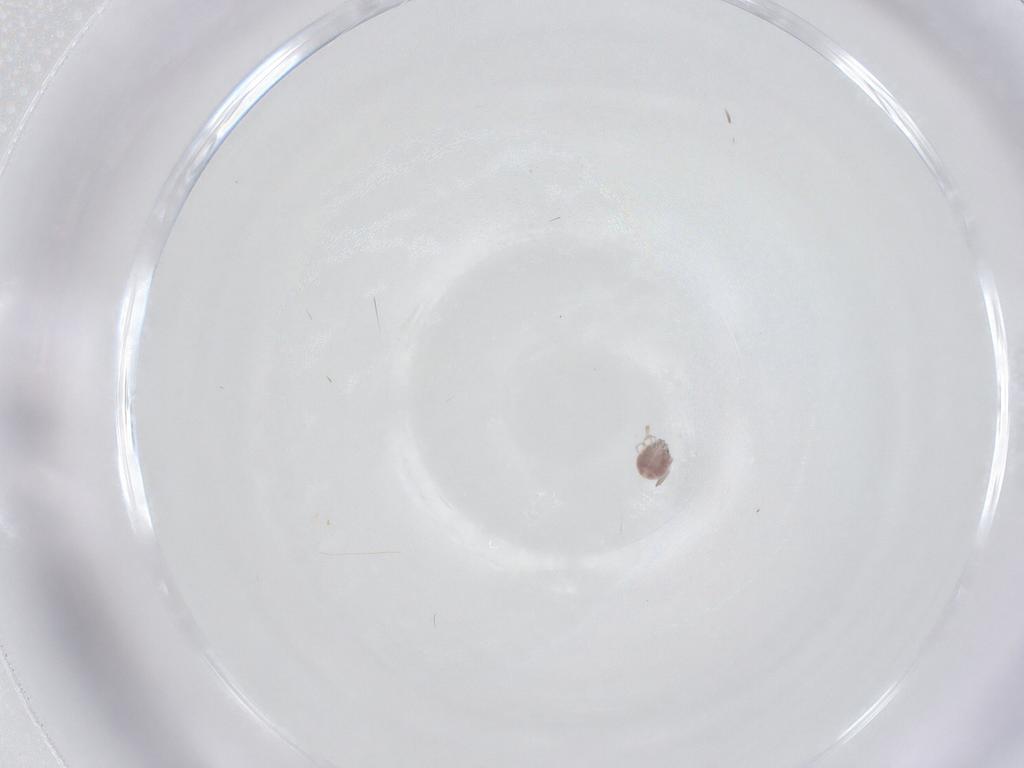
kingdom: Animalia
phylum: Arthropoda
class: Arachnida
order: Trombidiformes
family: Pionidae
